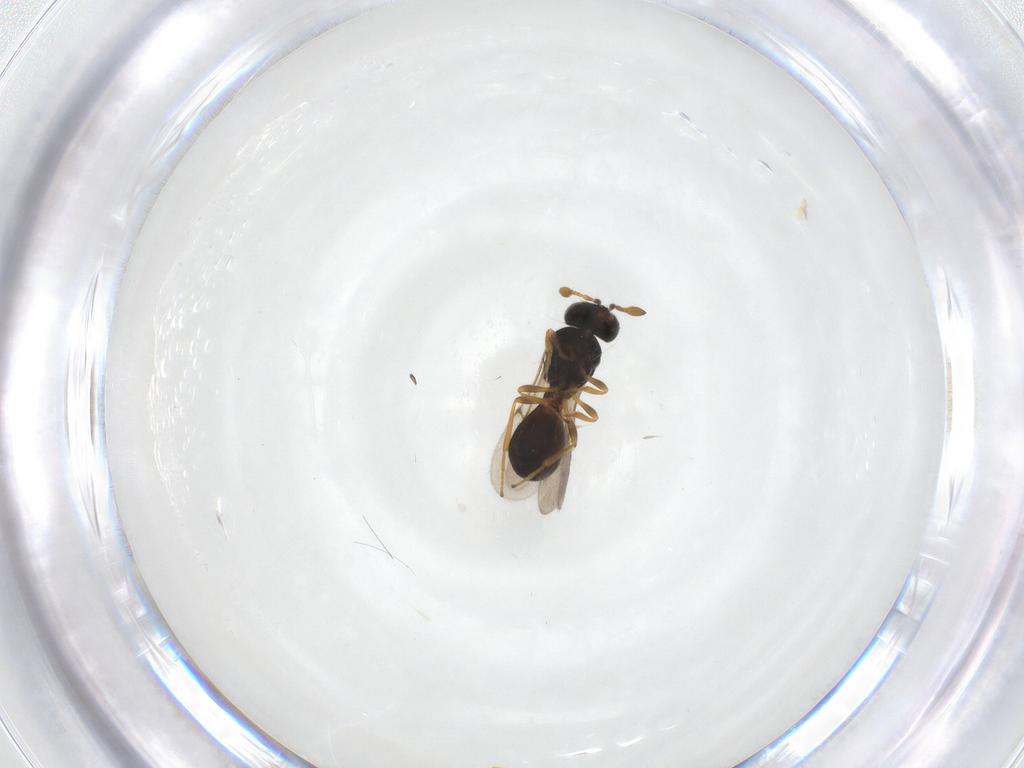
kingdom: Animalia
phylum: Arthropoda
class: Insecta
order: Hymenoptera
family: Scelionidae
